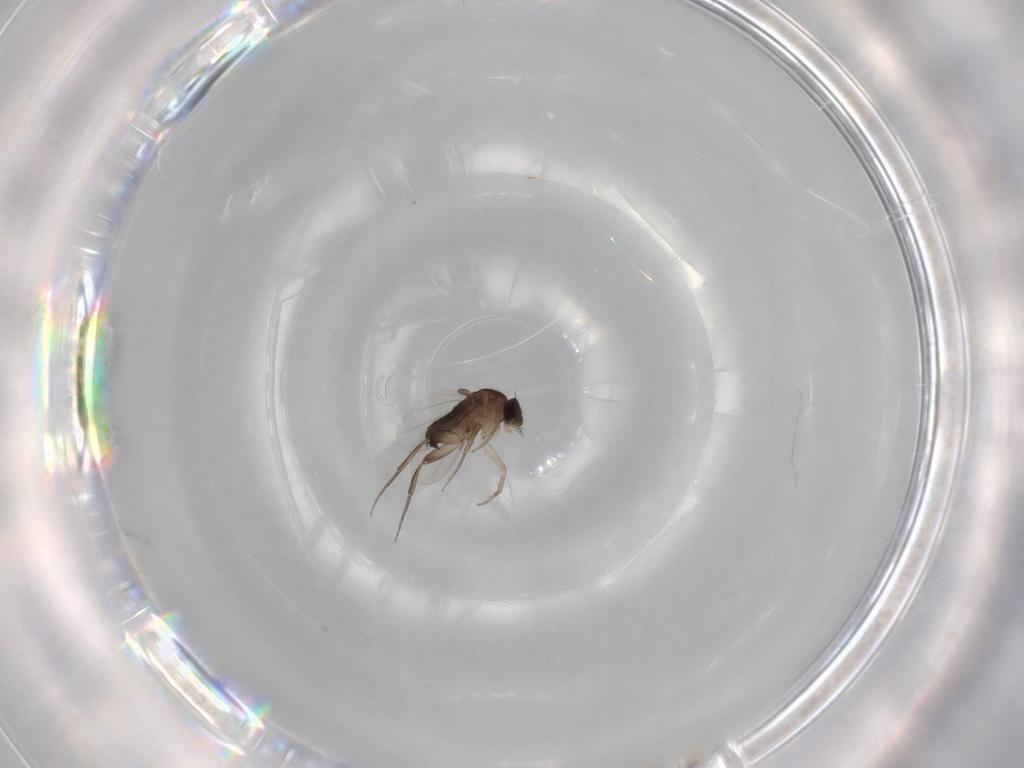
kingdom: Animalia
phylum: Arthropoda
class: Insecta
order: Diptera
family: Phoridae
